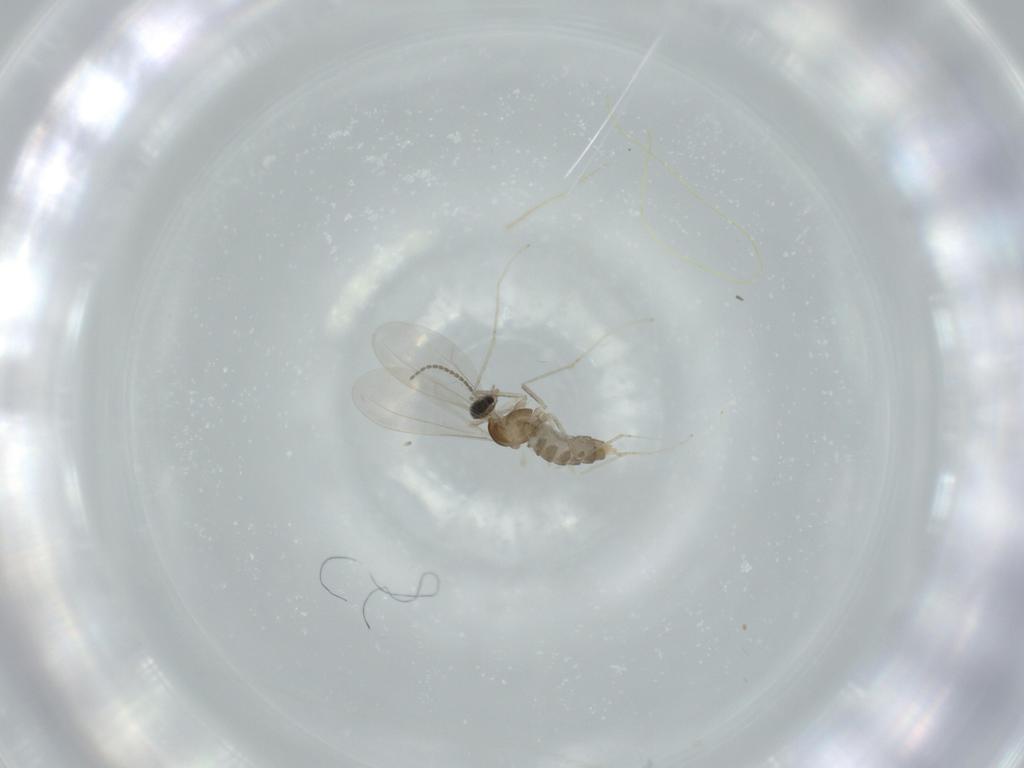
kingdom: Animalia
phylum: Arthropoda
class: Insecta
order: Diptera
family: Cecidomyiidae
